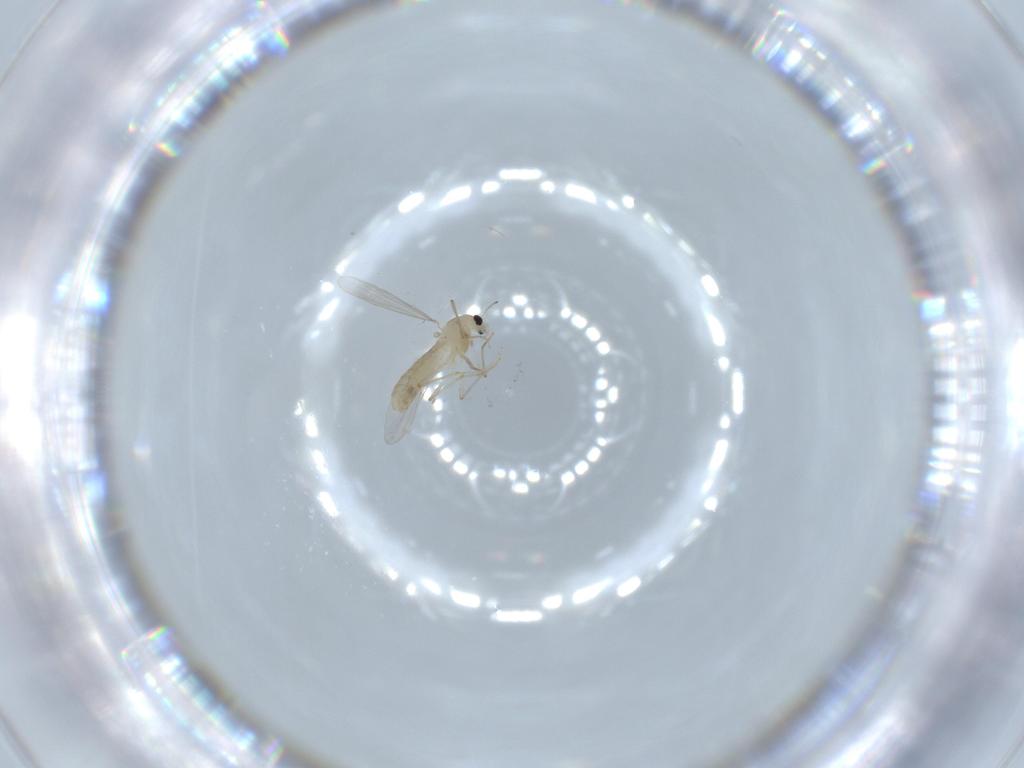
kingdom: Animalia
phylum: Arthropoda
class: Insecta
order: Diptera
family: Chironomidae
